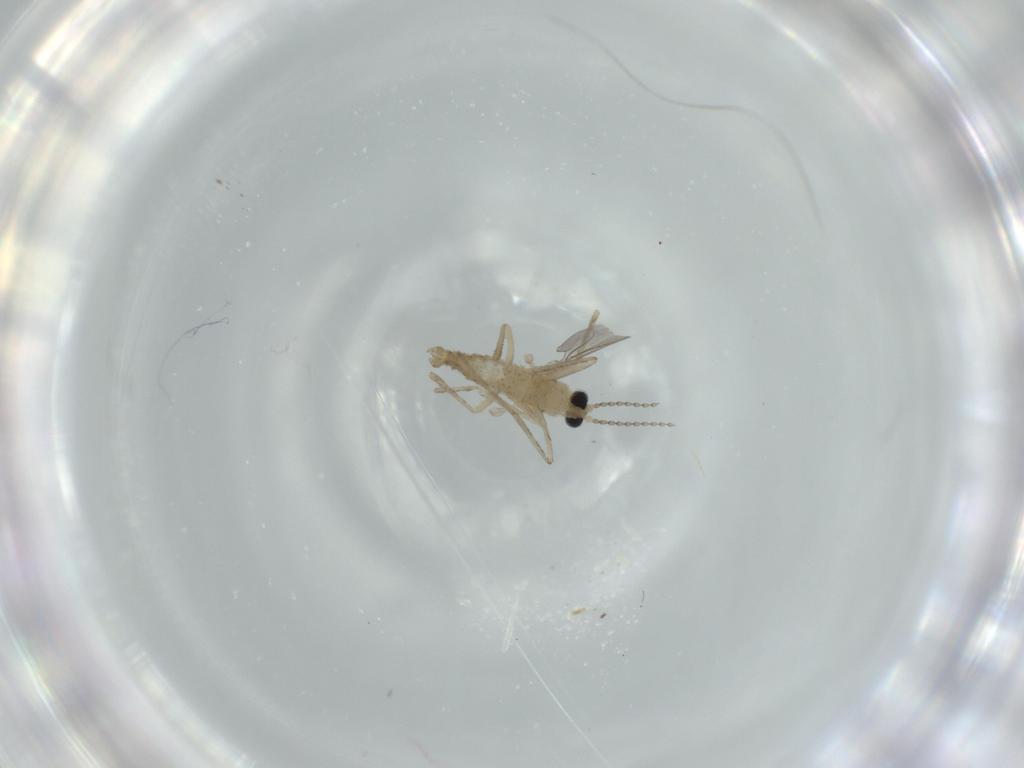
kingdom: Animalia
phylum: Arthropoda
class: Insecta
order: Diptera
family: Cecidomyiidae
